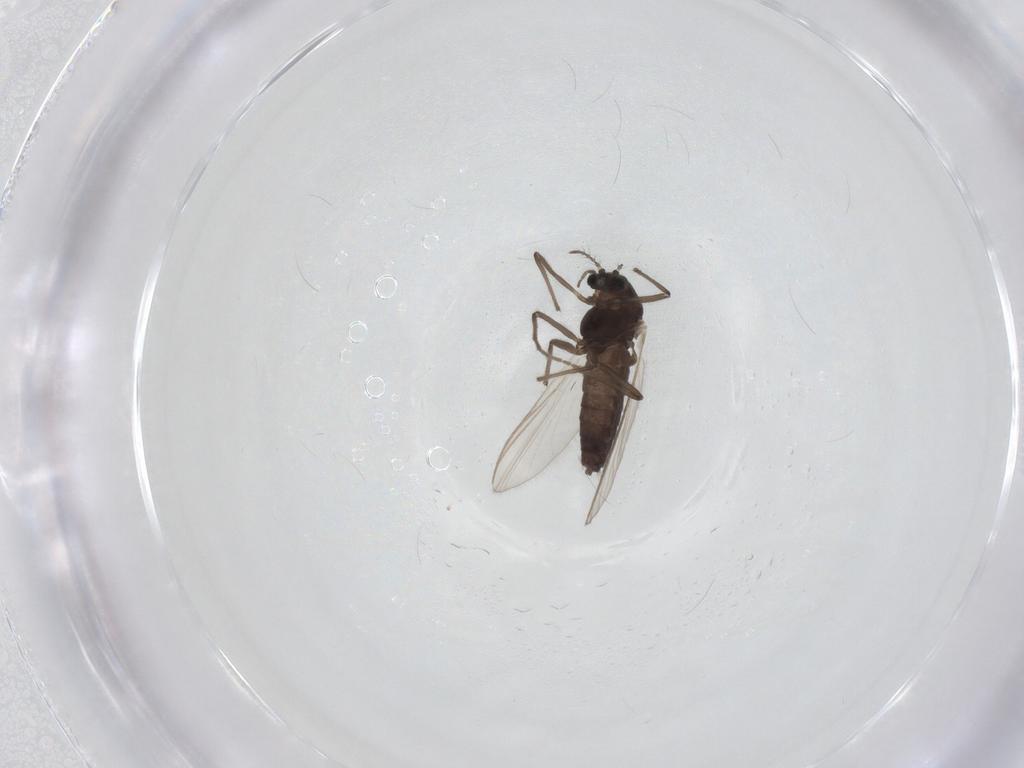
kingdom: Animalia
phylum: Arthropoda
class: Insecta
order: Diptera
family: Chironomidae
